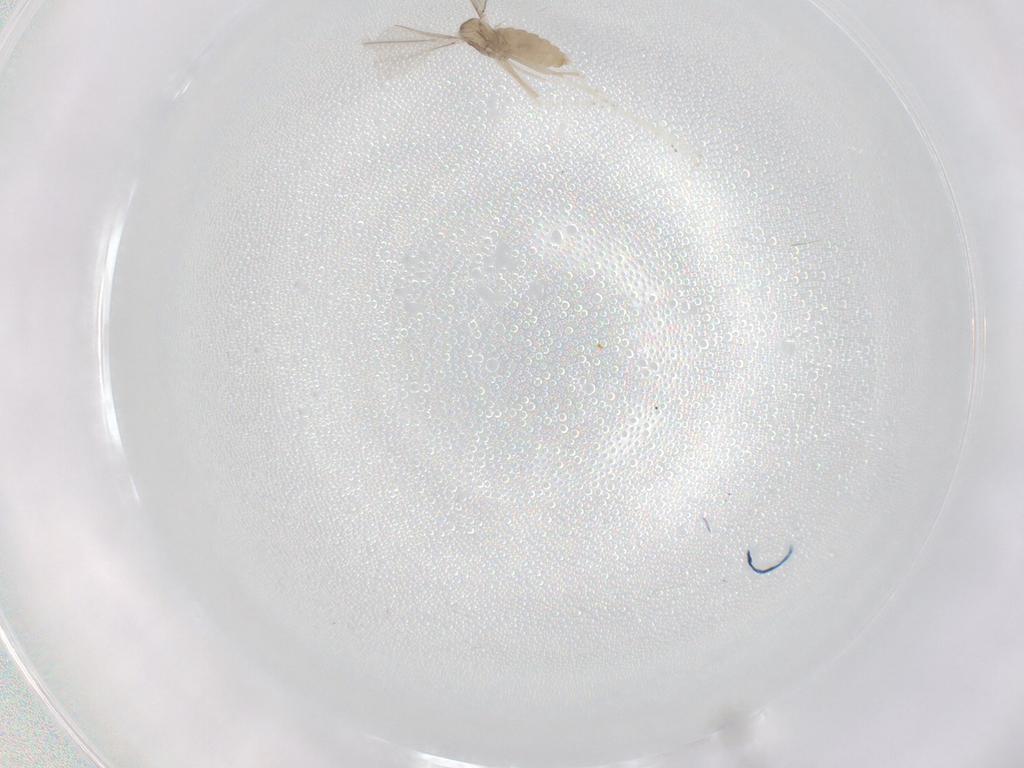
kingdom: Animalia
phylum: Arthropoda
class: Insecta
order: Diptera
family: Cecidomyiidae
